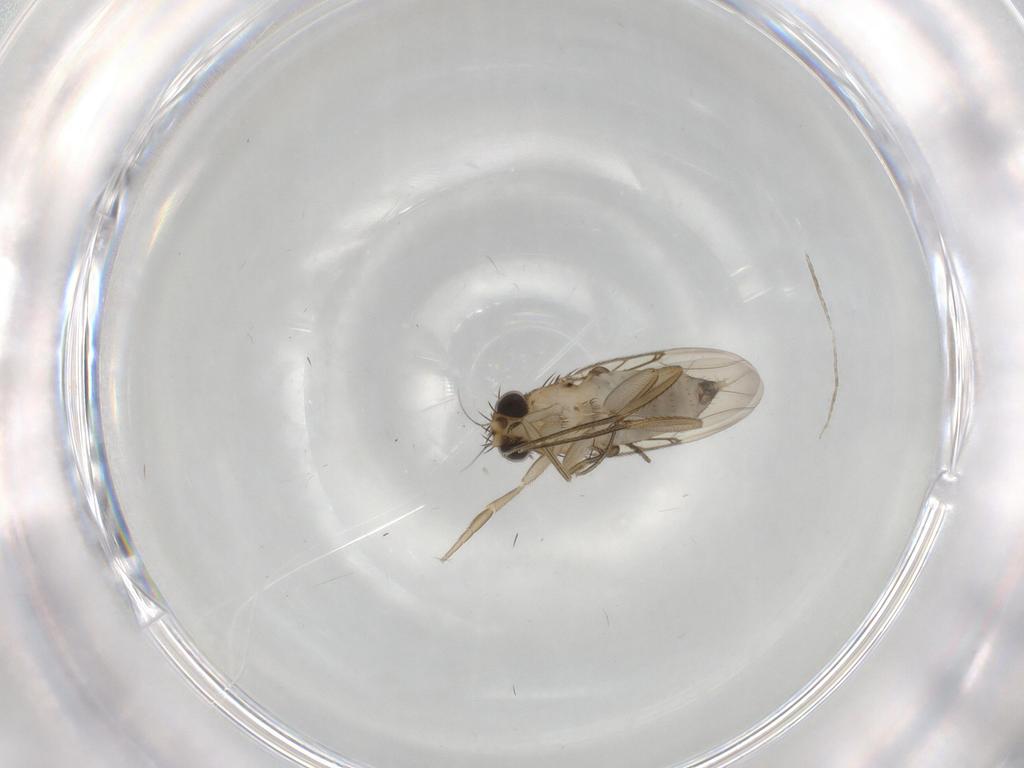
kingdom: Animalia
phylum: Arthropoda
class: Insecta
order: Diptera
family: Phoridae
